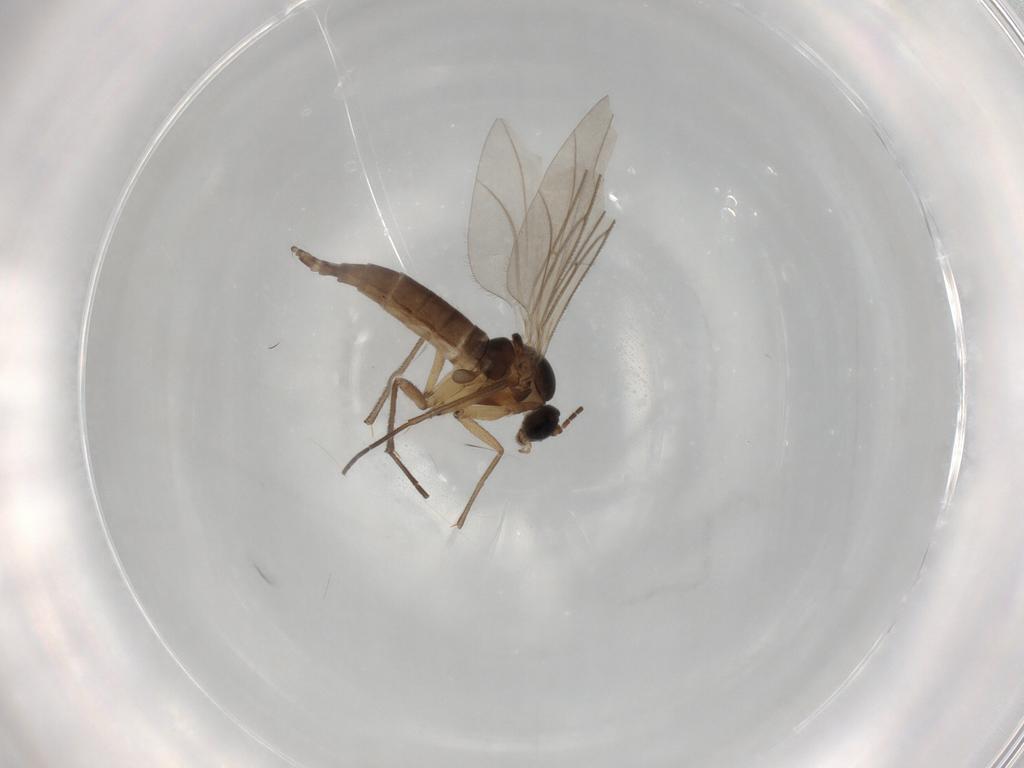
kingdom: Animalia
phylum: Arthropoda
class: Insecta
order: Diptera
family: Sciaridae
